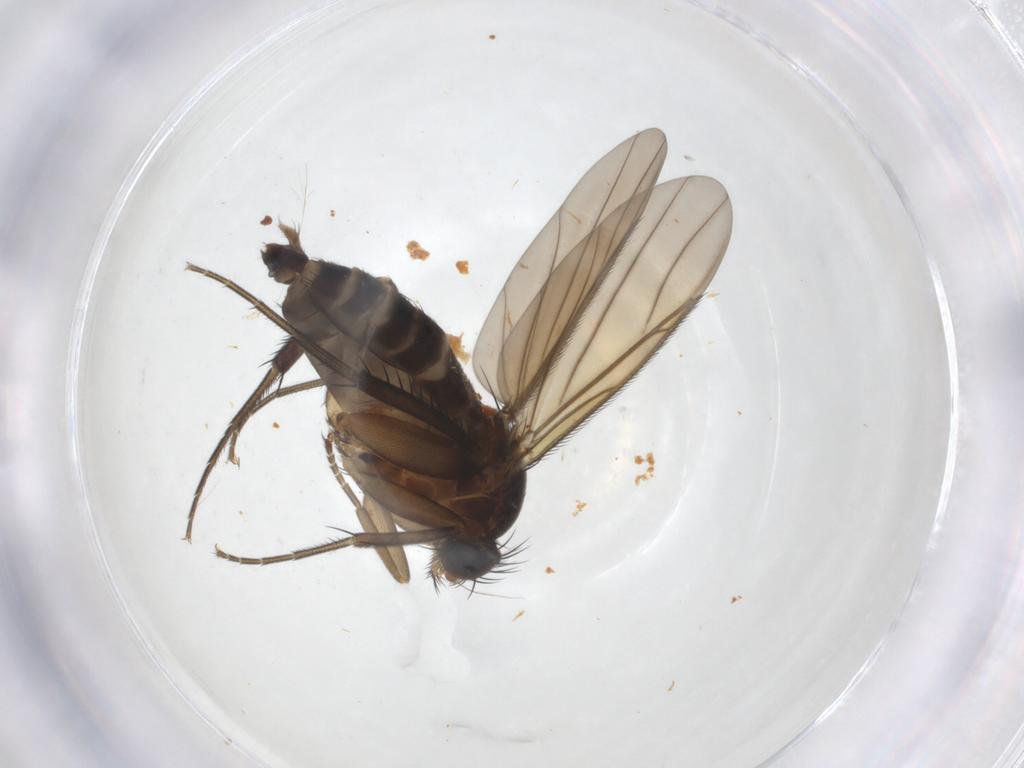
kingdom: Animalia
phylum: Arthropoda
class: Insecta
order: Diptera
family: Phoridae
